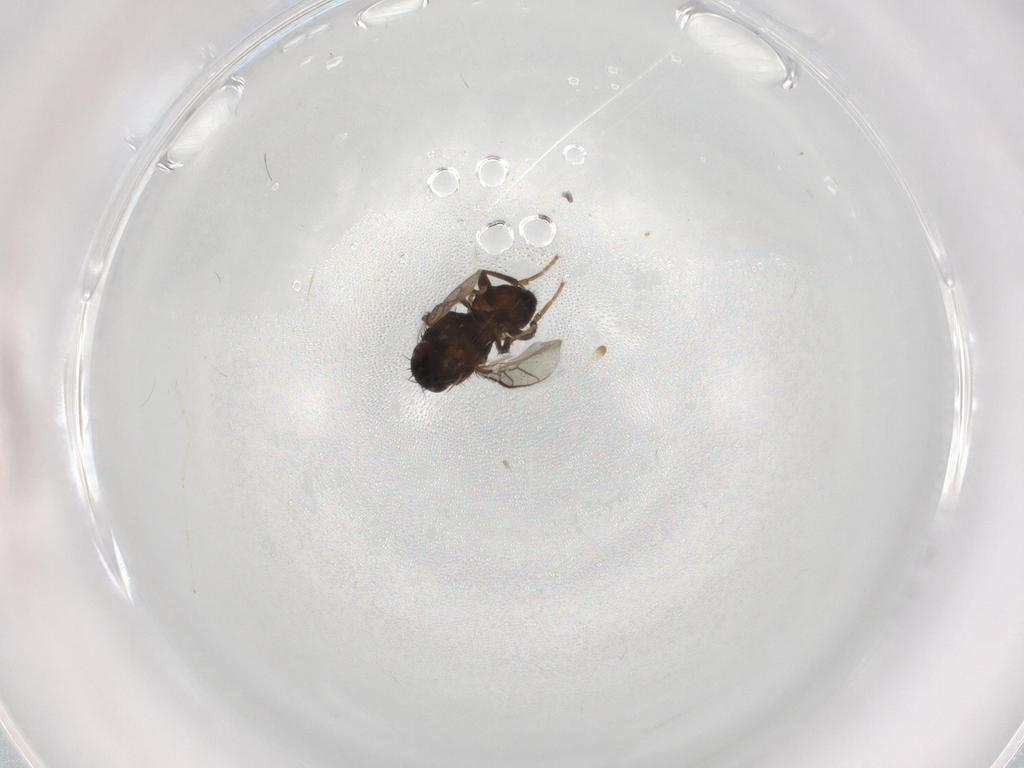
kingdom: Animalia
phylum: Arthropoda
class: Insecta
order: Diptera
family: Sphaeroceridae
